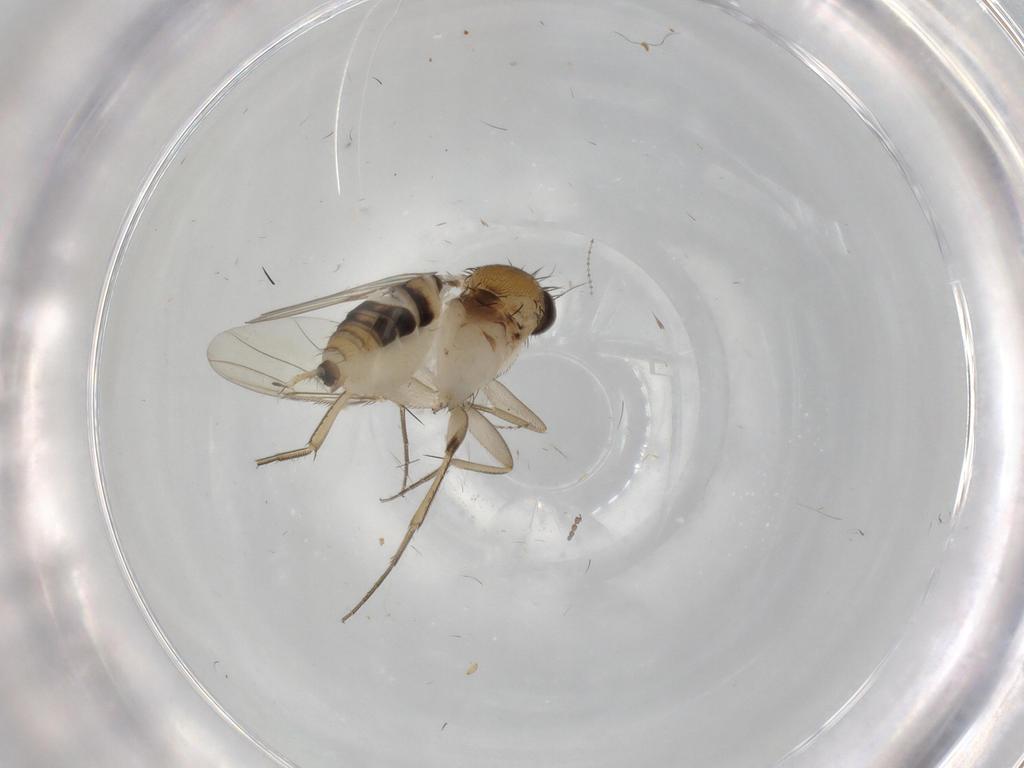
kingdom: Animalia
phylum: Arthropoda
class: Insecta
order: Diptera
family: Phoridae
